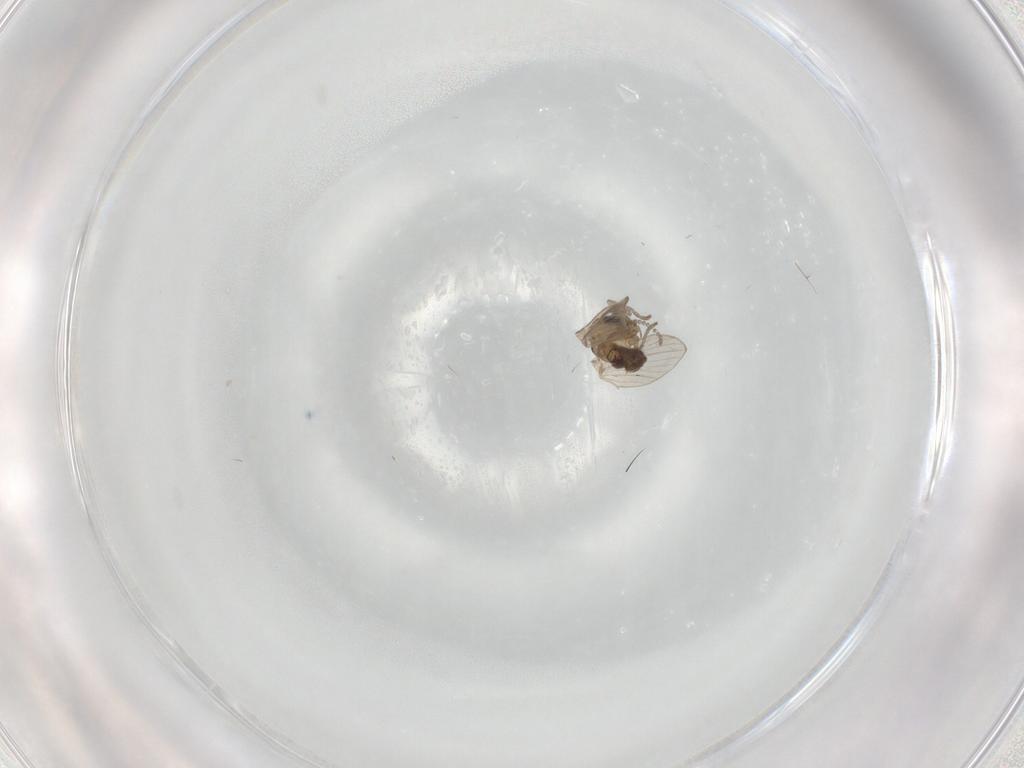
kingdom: Animalia
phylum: Arthropoda
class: Insecta
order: Diptera
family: Psychodidae
